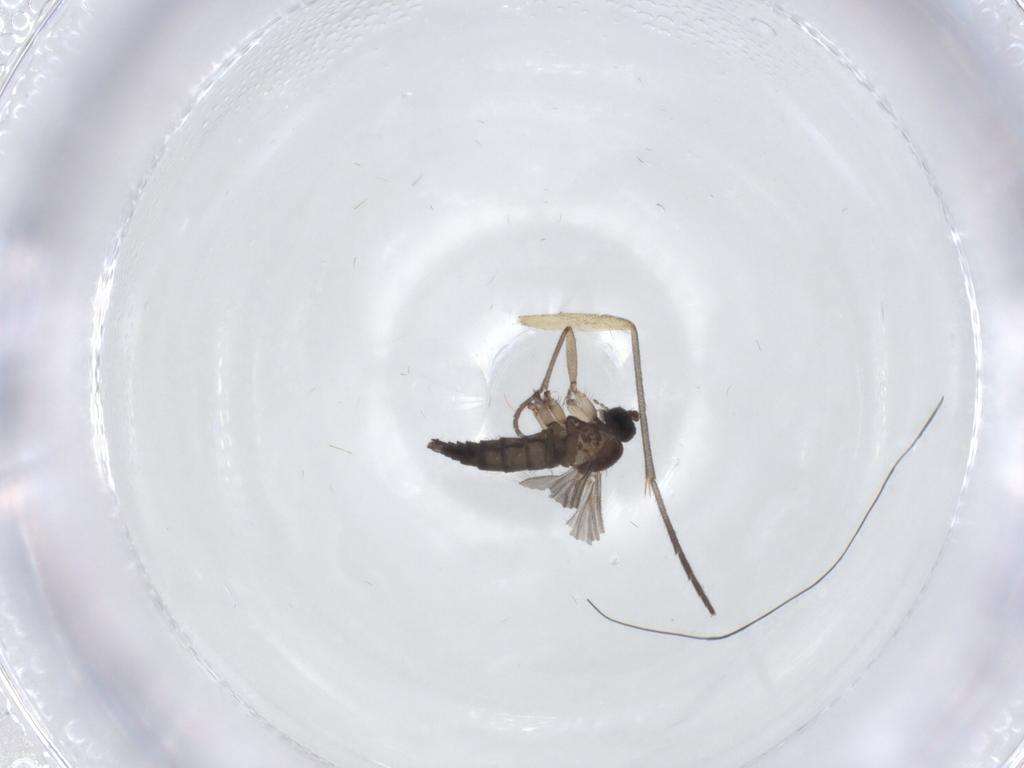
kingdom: Animalia
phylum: Arthropoda
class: Insecta
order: Diptera
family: Sciaridae
